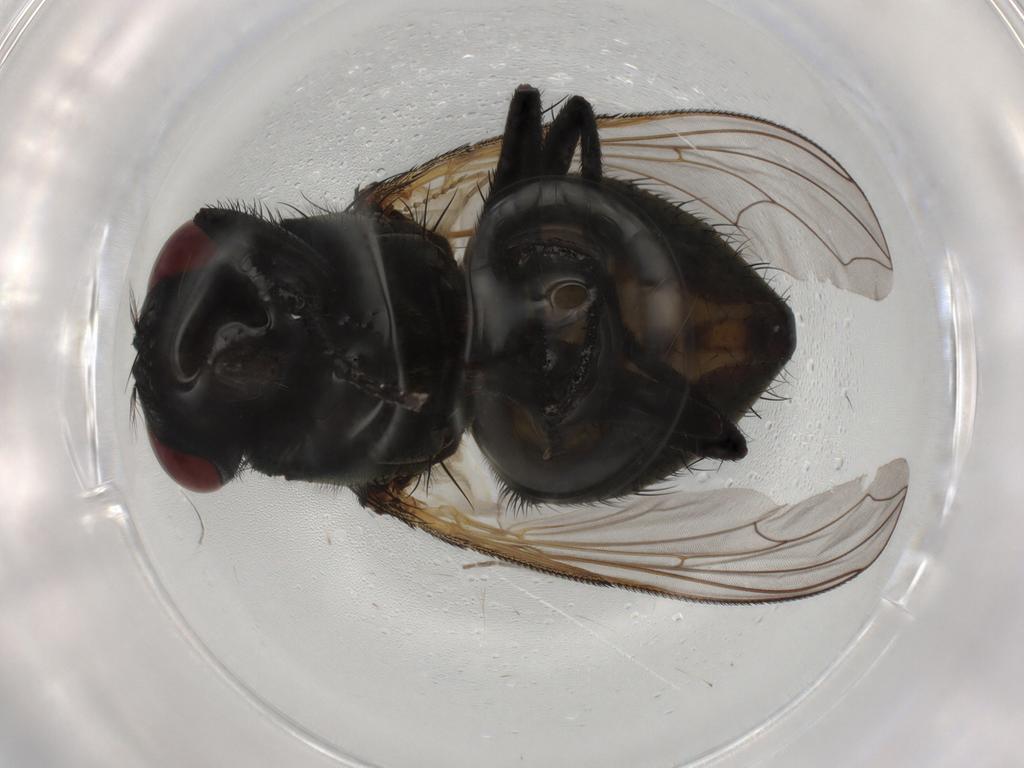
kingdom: Animalia
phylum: Arthropoda
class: Insecta
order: Diptera
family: Muscidae
